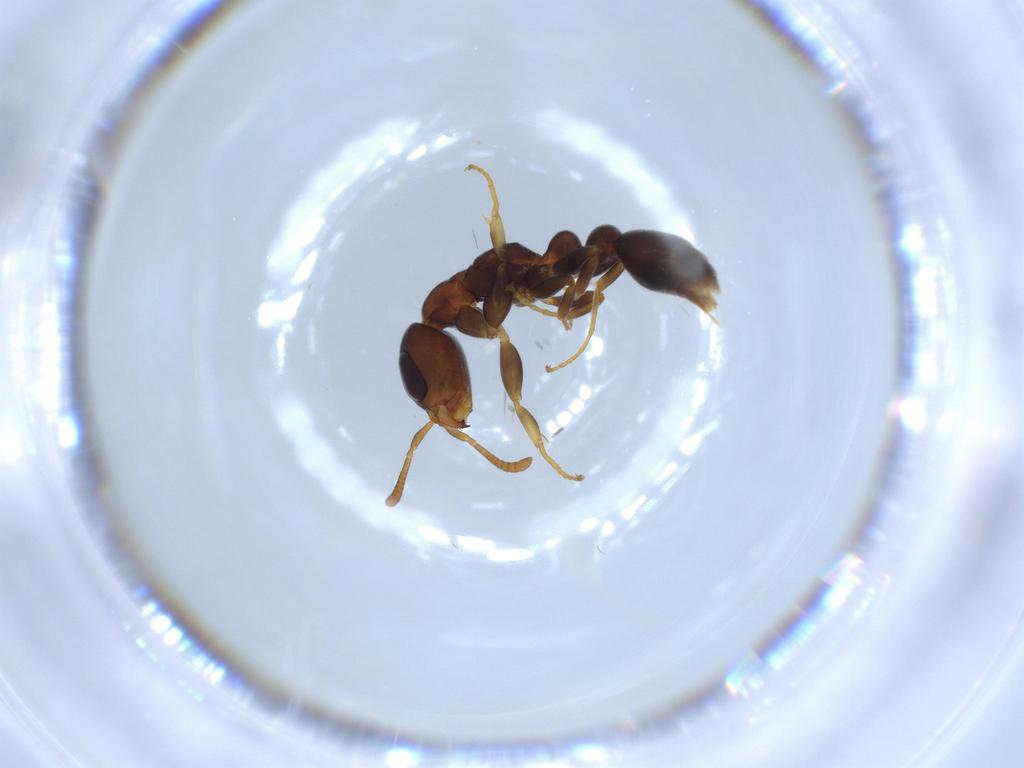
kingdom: Animalia
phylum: Arthropoda
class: Insecta
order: Hymenoptera
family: Formicidae
